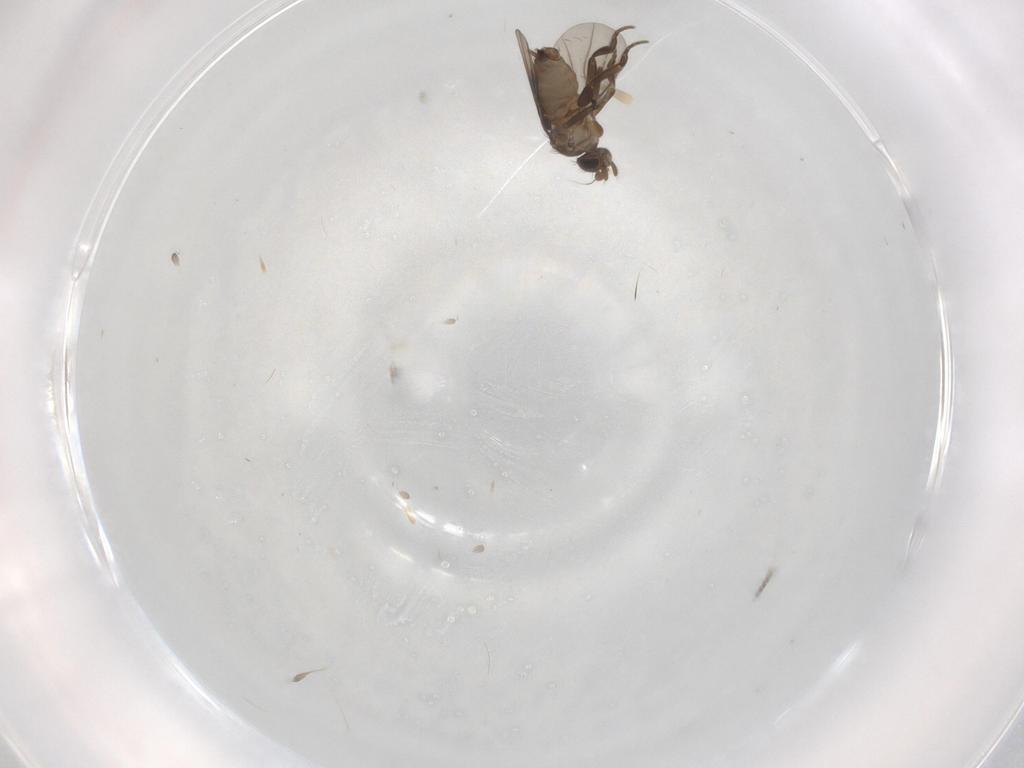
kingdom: Animalia
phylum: Arthropoda
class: Insecta
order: Diptera
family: Phoridae
